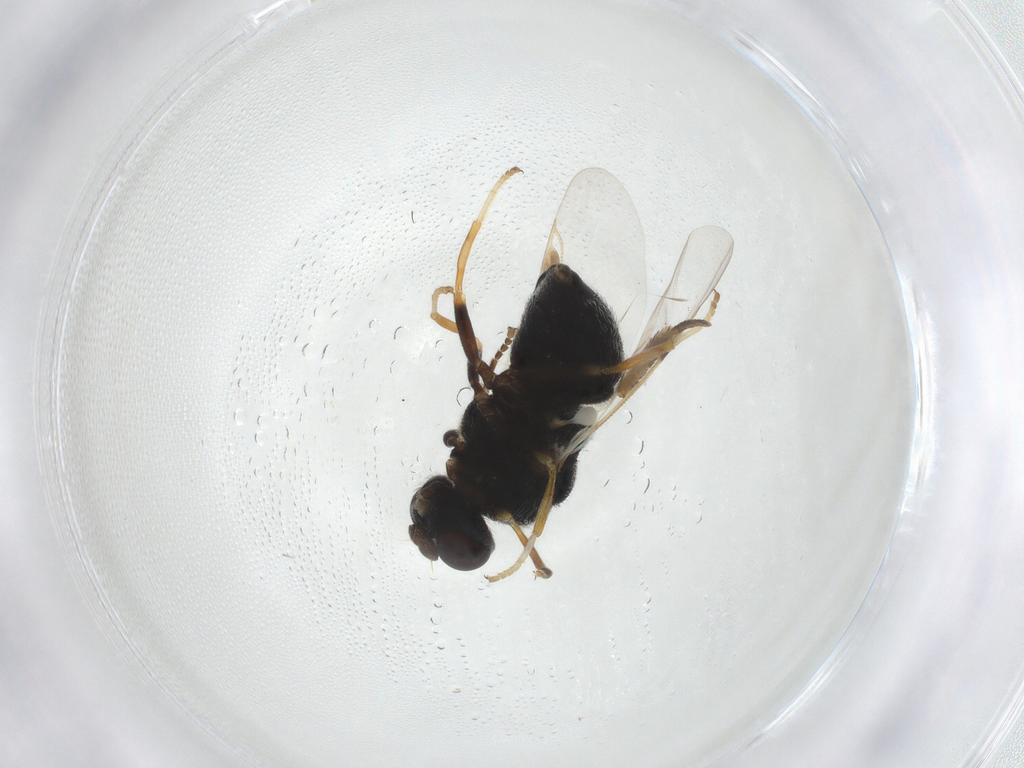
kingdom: Animalia
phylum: Arthropoda
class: Insecta
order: Diptera
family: Stratiomyidae
